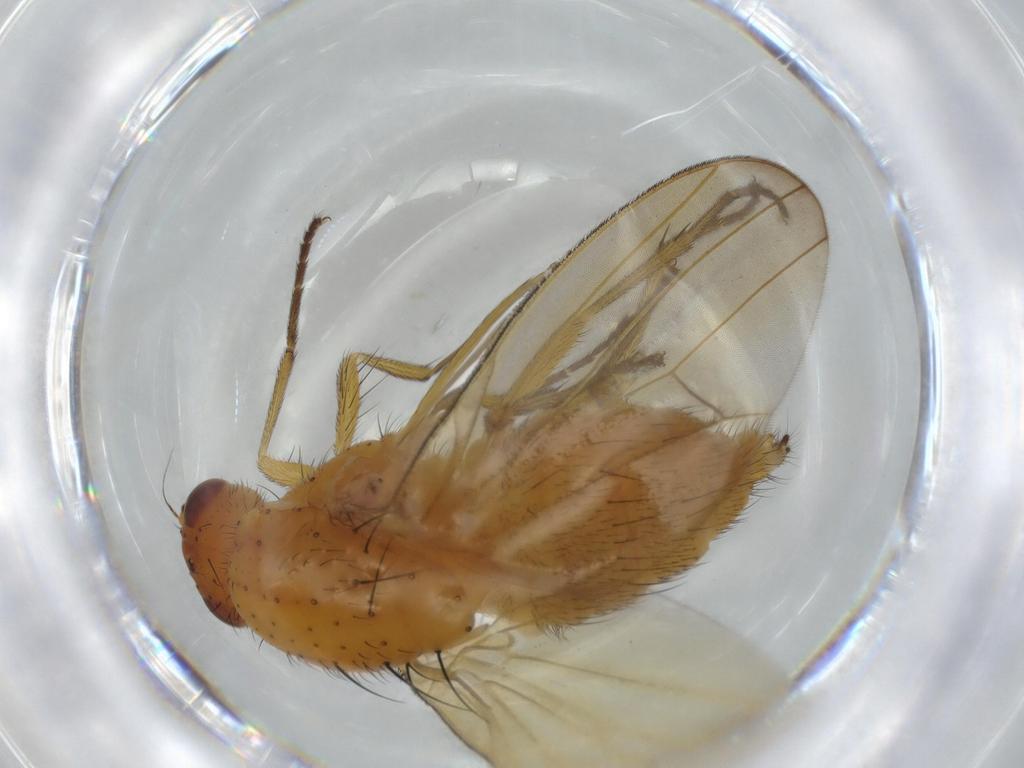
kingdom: Animalia
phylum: Arthropoda
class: Insecta
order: Diptera
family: Lauxaniidae
